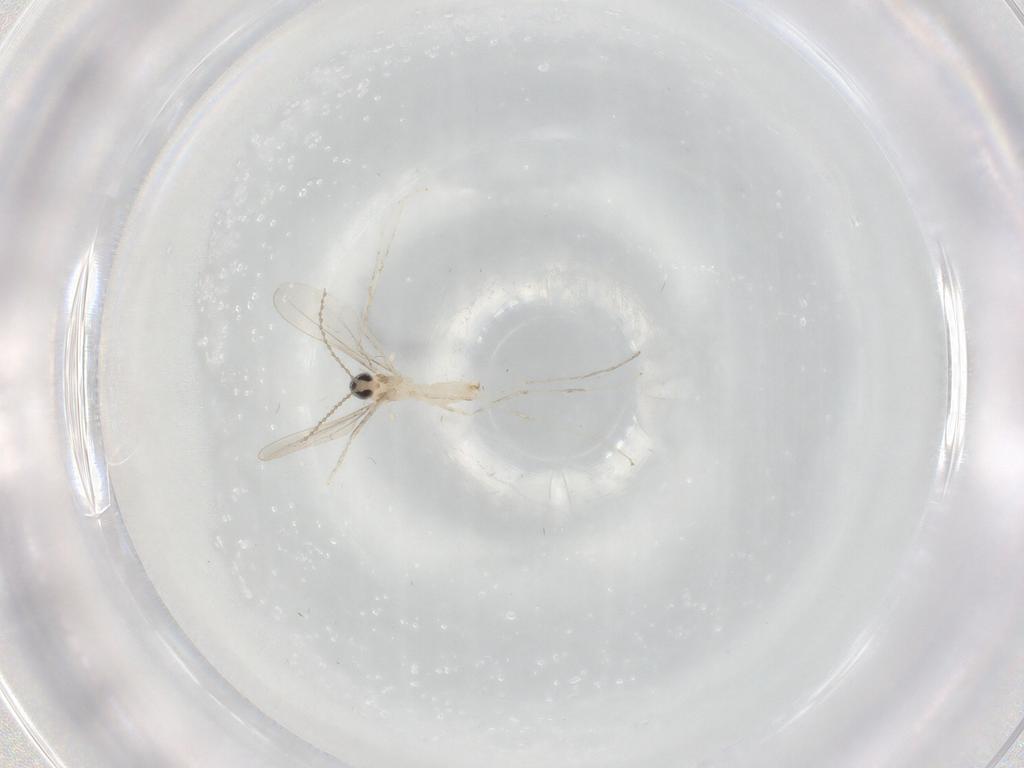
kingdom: Animalia
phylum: Arthropoda
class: Insecta
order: Diptera
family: Cecidomyiidae
